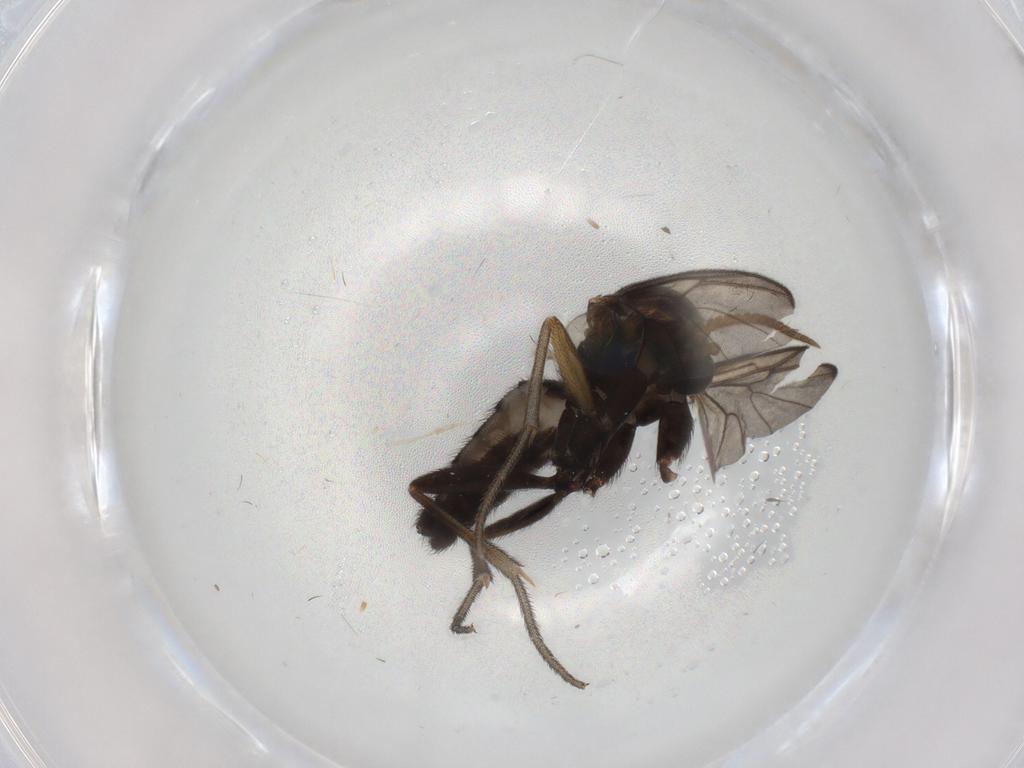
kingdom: Animalia
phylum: Arthropoda
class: Insecta
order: Diptera
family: Mycetophilidae
